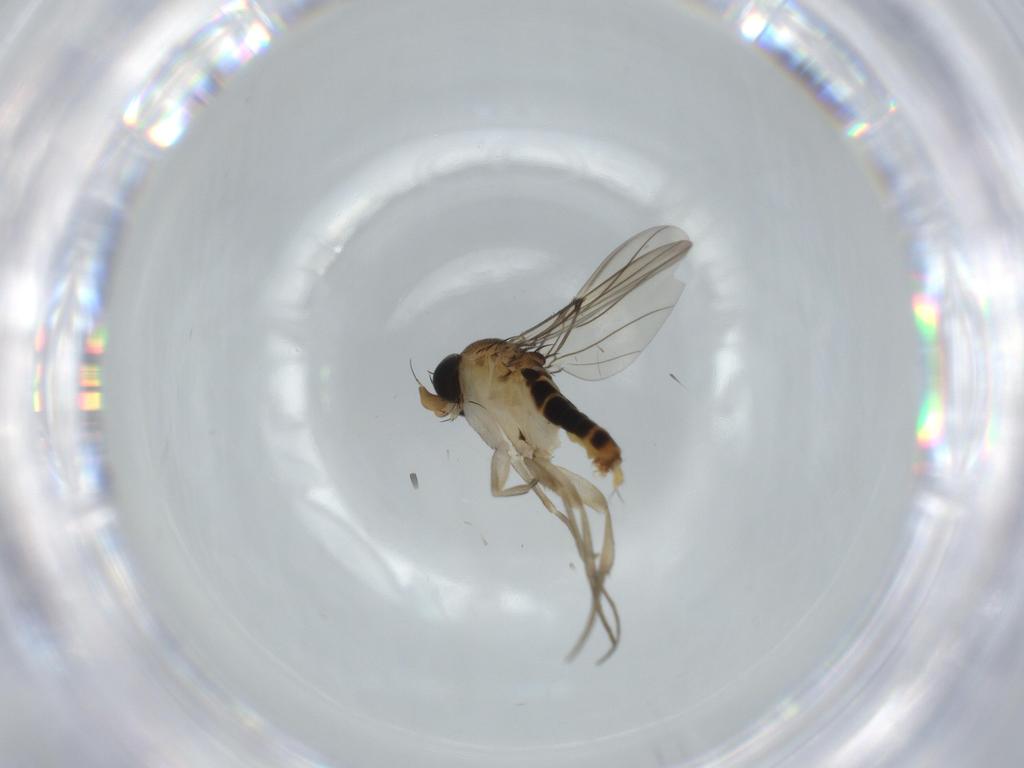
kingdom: Animalia
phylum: Arthropoda
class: Insecta
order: Diptera
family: Phoridae
